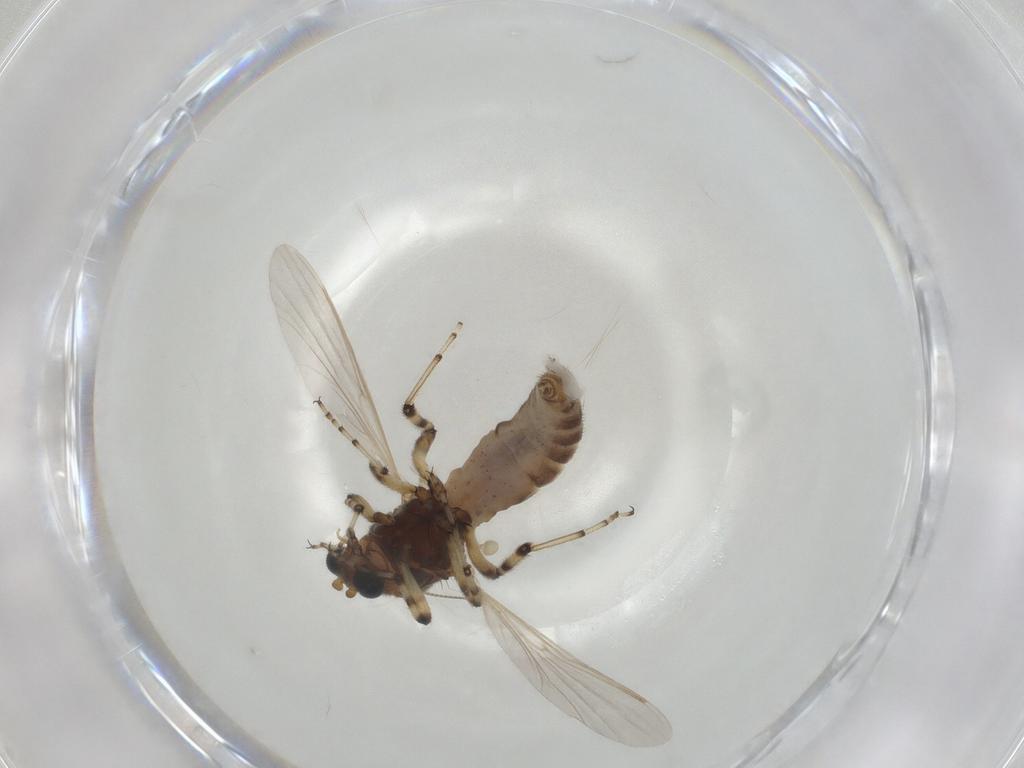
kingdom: Animalia
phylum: Arthropoda
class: Insecta
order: Diptera
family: Ceratopogonidae
